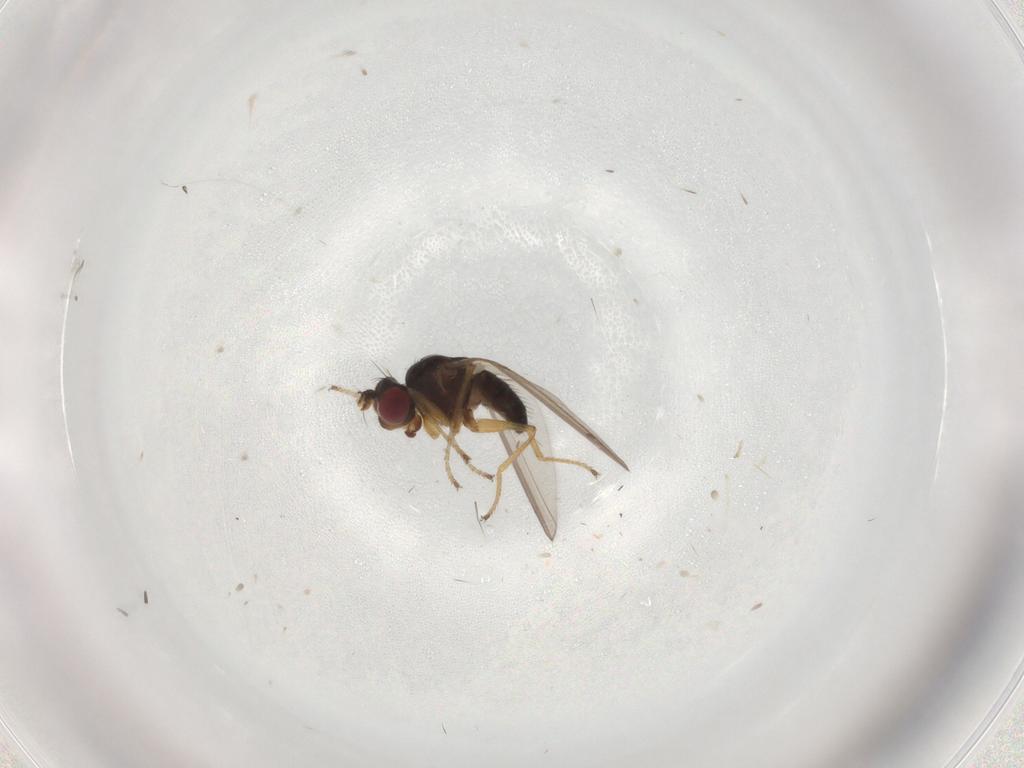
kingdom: Animalia
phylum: Arthropoda
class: Insecta
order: Diptera
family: Ephydridae
